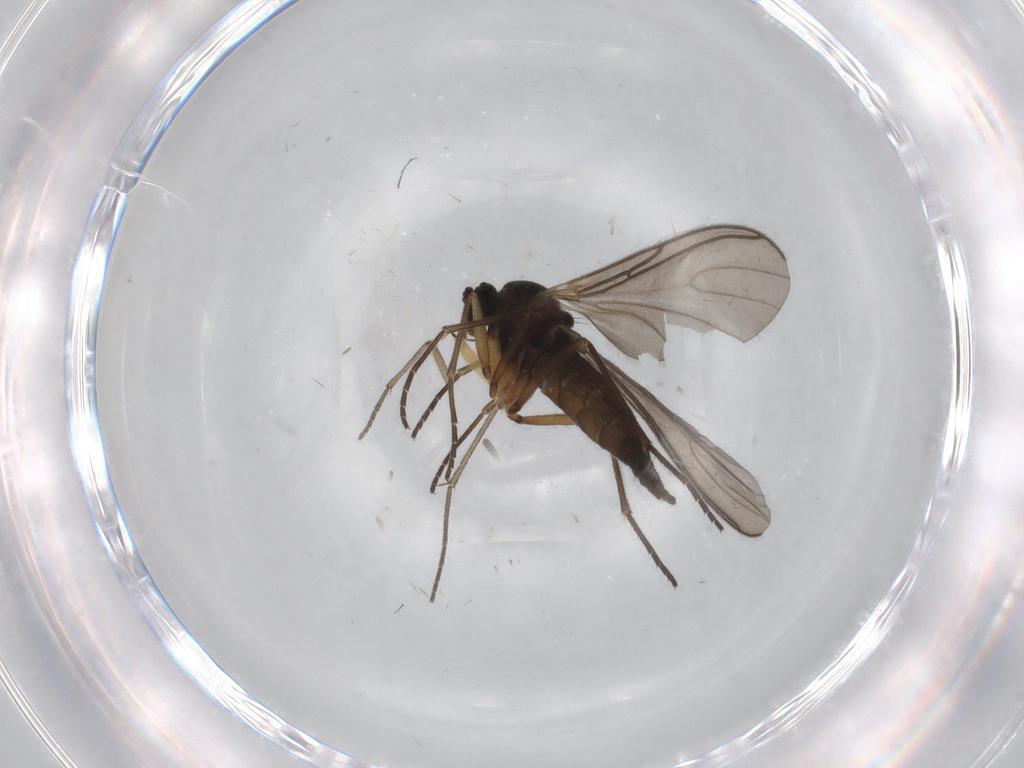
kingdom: Animalia
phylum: Arthropoda
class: Insecta
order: Diptera
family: Sciaridae
